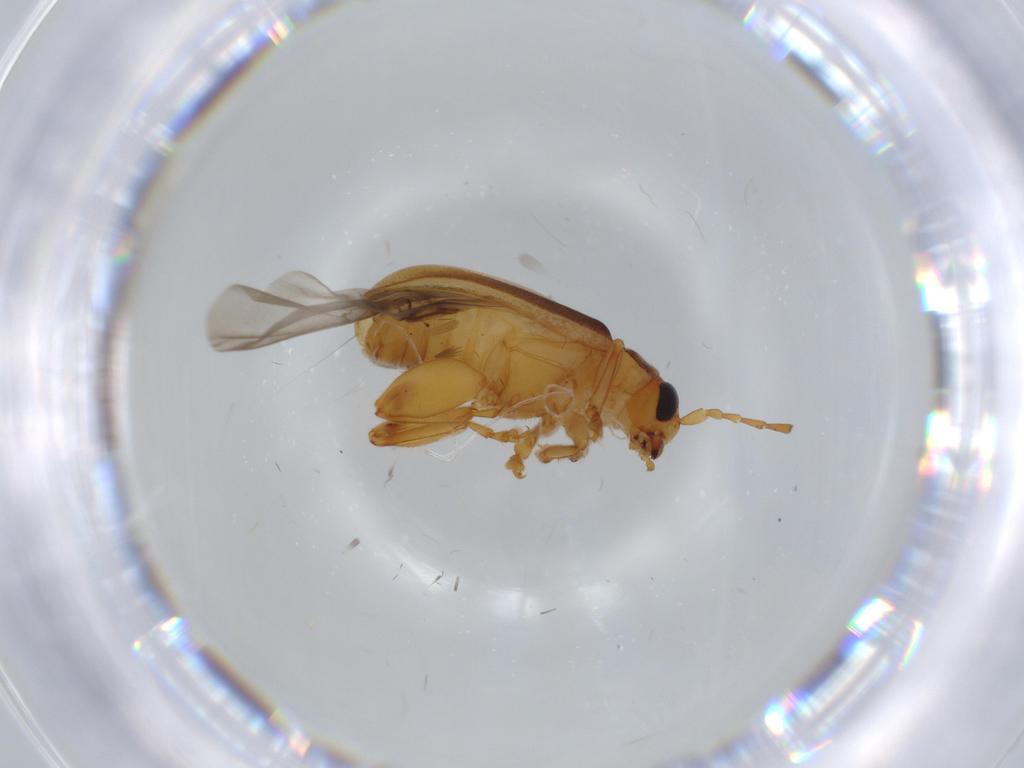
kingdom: Animalia
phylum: Arthropoda
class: Insecta
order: Coleoptera
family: Chrysomelidae
